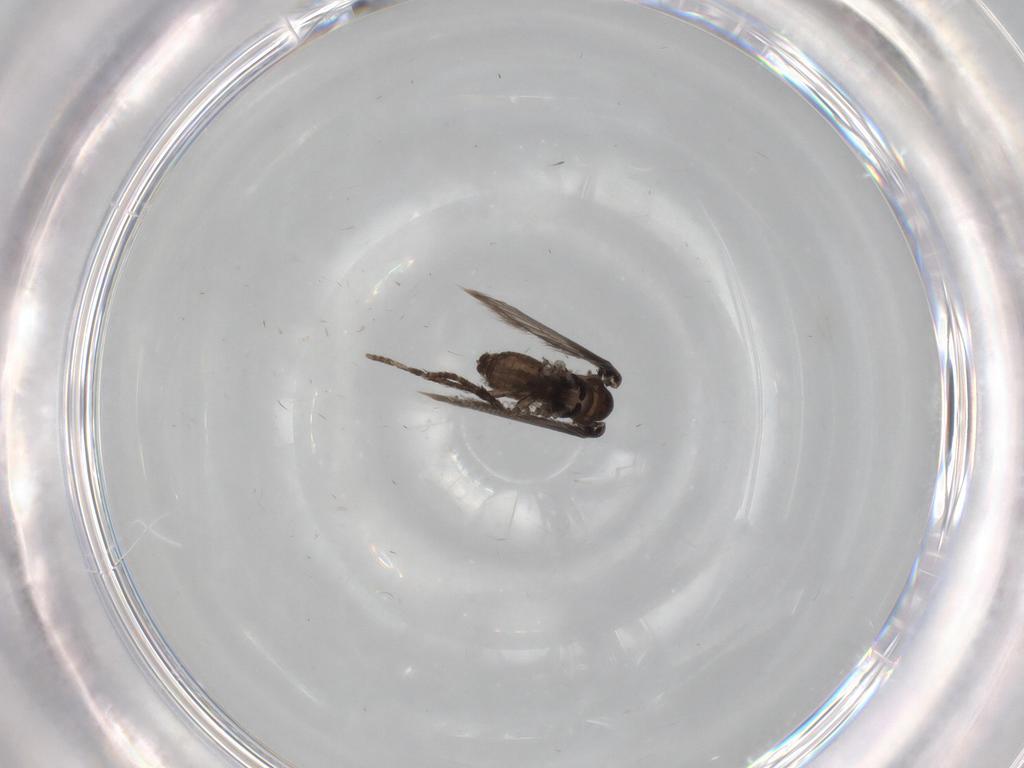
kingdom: Animalia
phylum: Arthropoda
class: Insecta
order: Diptera
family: Psychodidae
